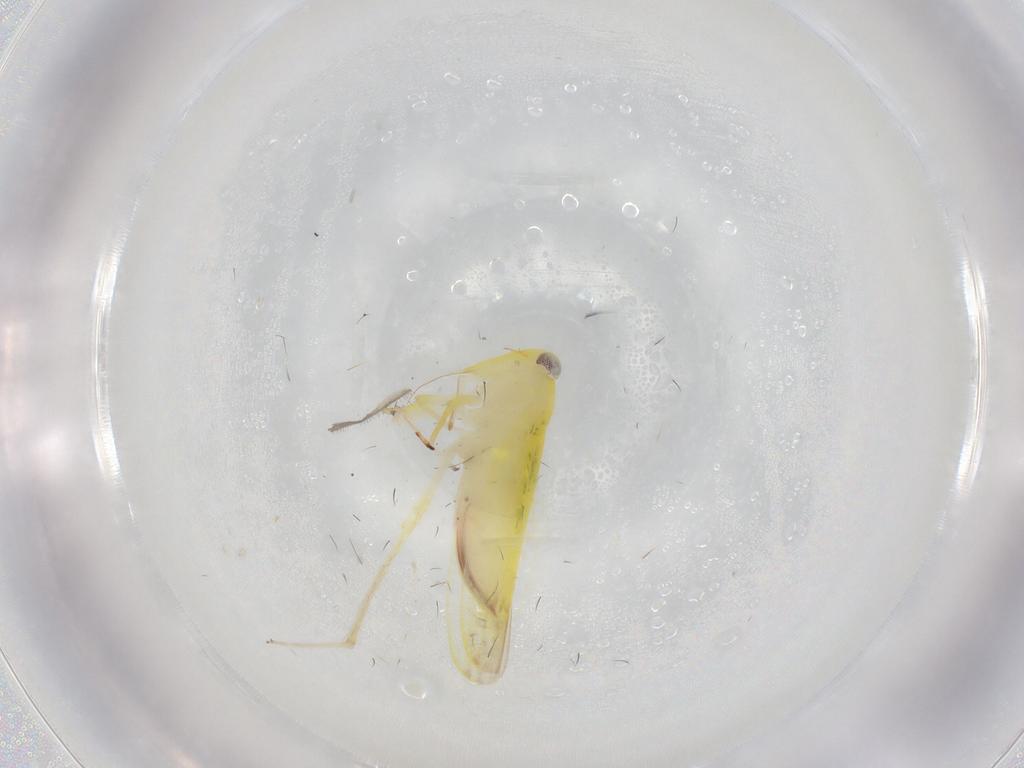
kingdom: Animalia
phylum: Arthropoda
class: Insecta
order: Hemiptera
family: Cicadellidae
